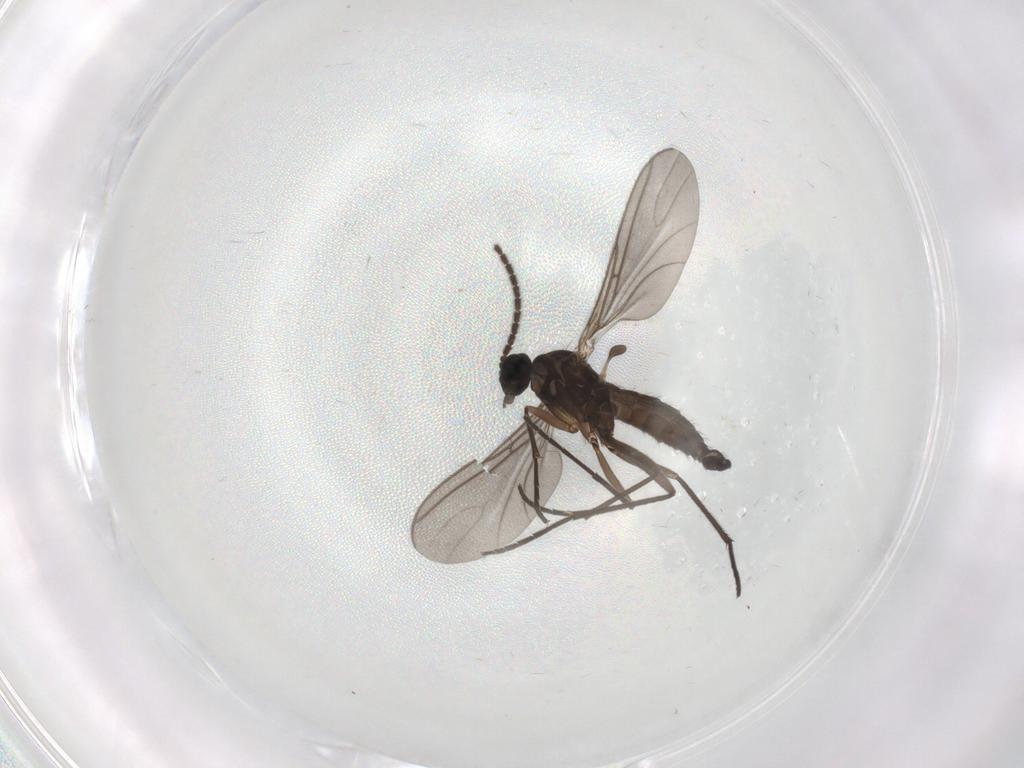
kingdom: Animalia
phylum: Arthropoda
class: Insecta
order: Diptera
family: Sciaridae
